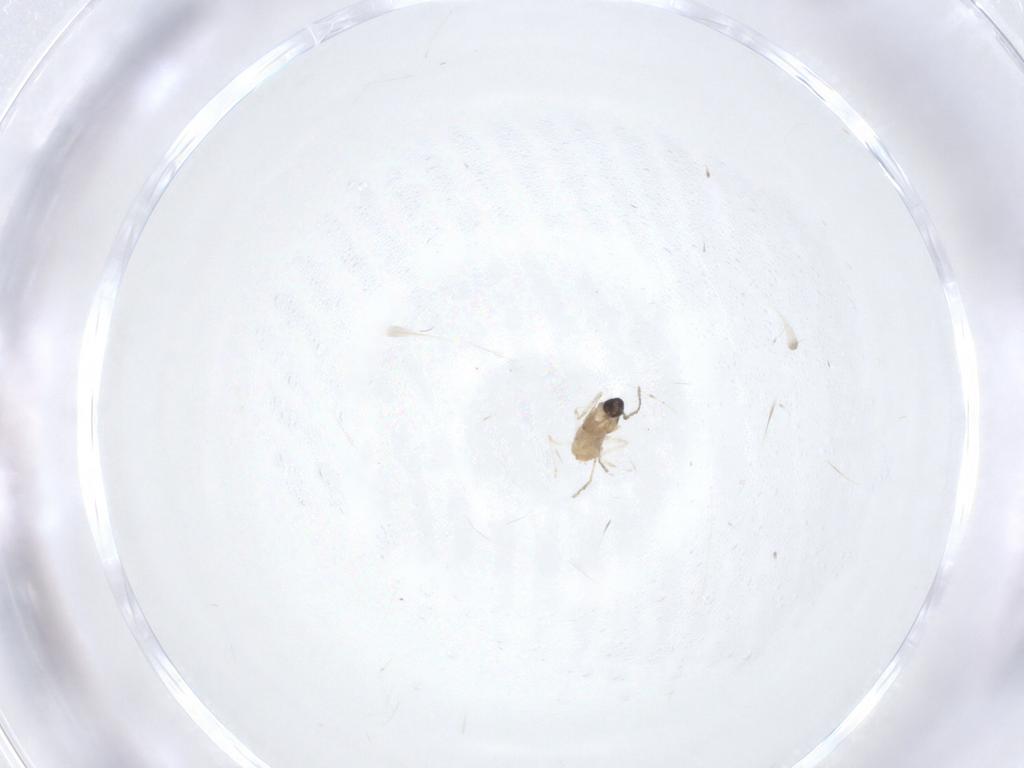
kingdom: Animalia
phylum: Arthropoda
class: Insecta
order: Diptera
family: Cecidomyiidae
